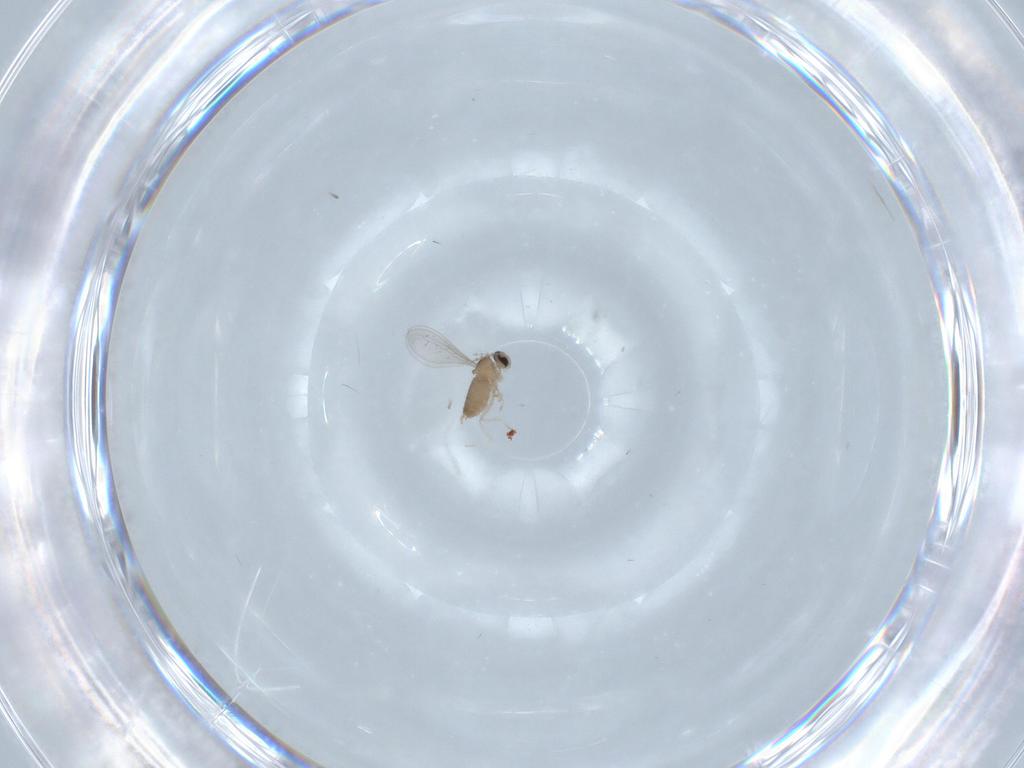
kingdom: Animalia
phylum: Arthropoda
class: Insecta
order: Diptera
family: Cecidomyiidae
